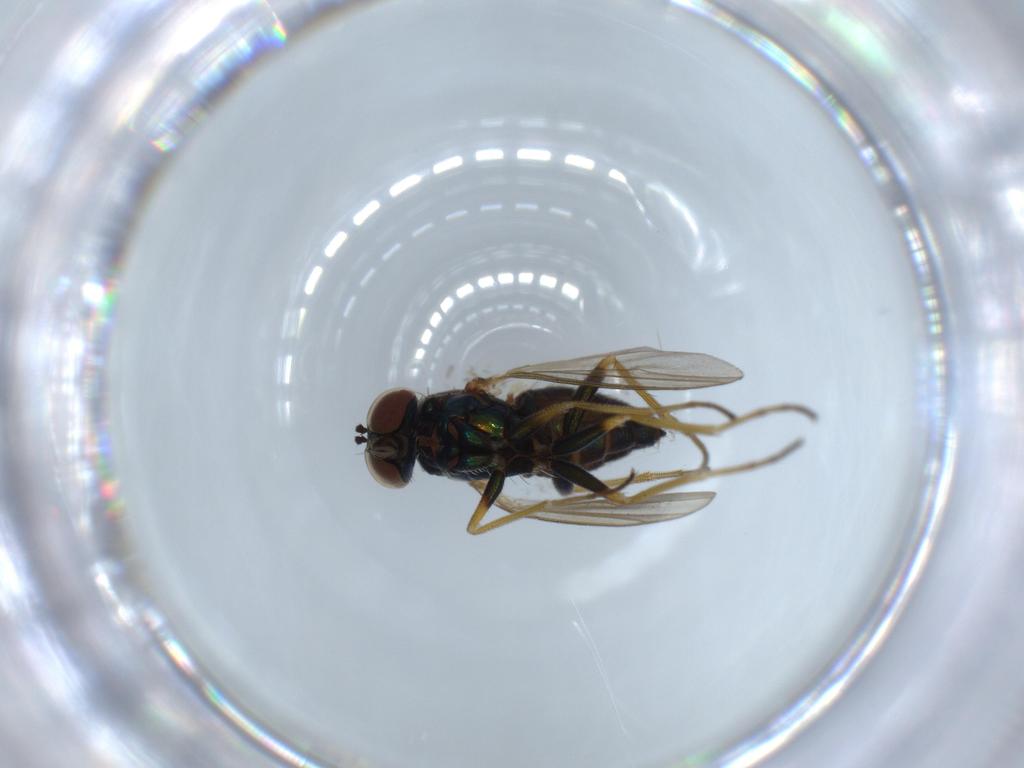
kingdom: Animalia
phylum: Arthropoda
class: Insecta
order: Diptera
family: Dolichopodidae
